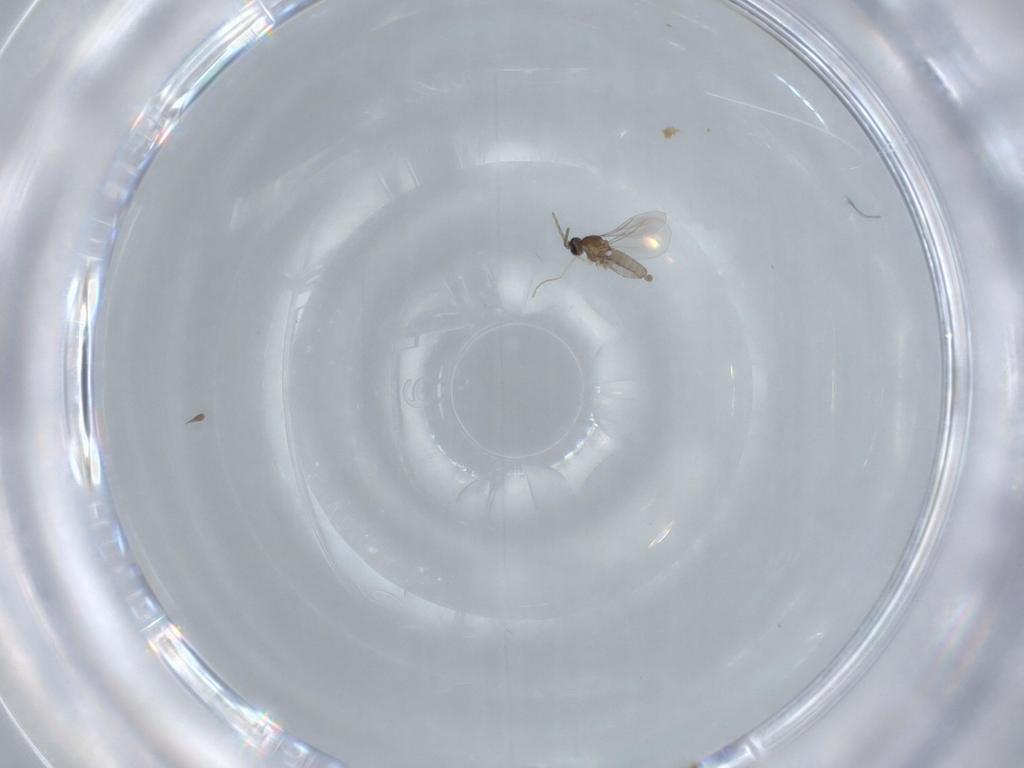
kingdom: Animalia
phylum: Arthropoda
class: Insecta
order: Diptera
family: Cecidomyiidae
